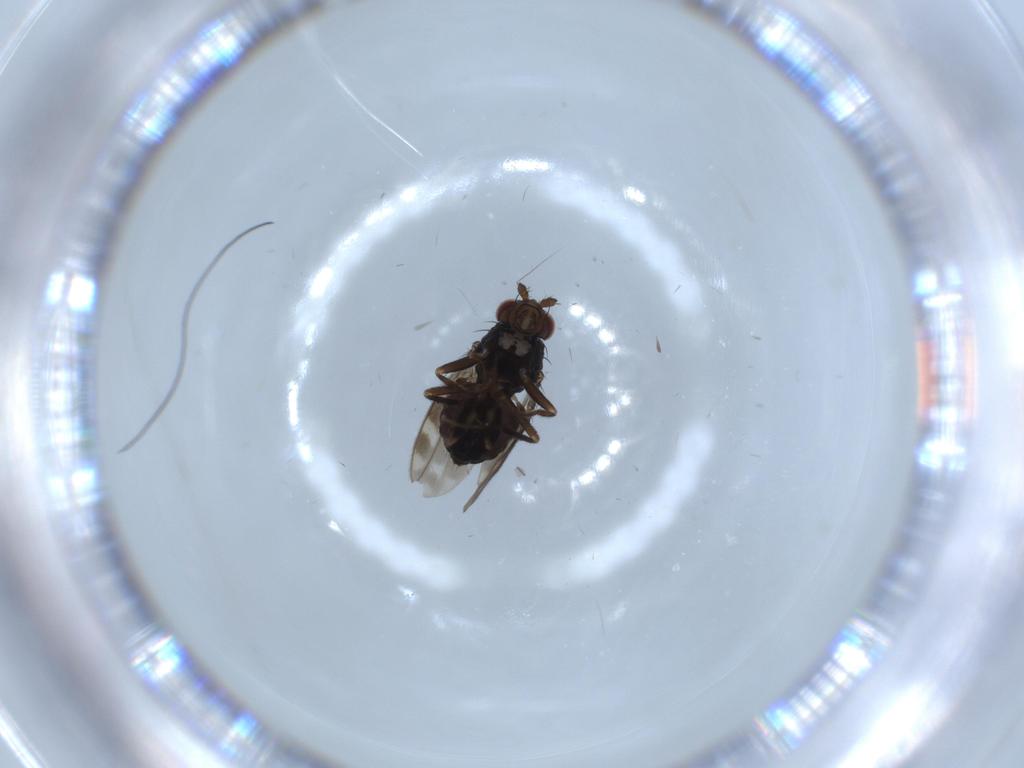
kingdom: Animalia
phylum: Arthropoda
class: Insecta
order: Diptera
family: Sphaeroceridae
